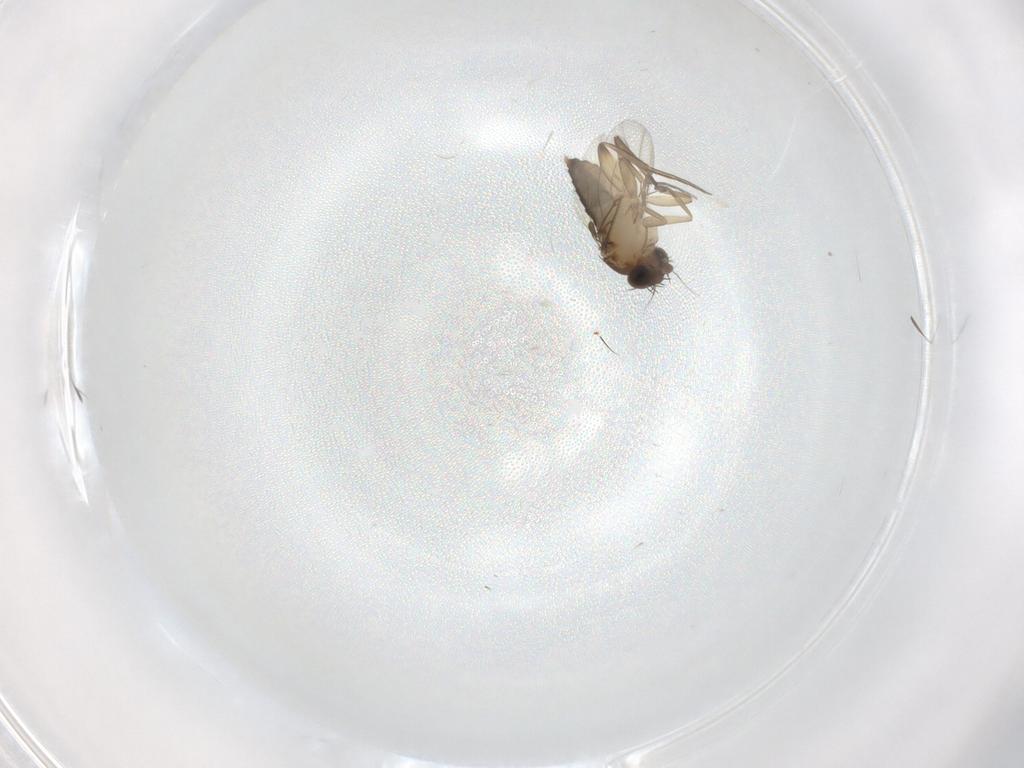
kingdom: Animalia
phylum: Arthropoda
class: Insecta
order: Diptera
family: Phoridae
